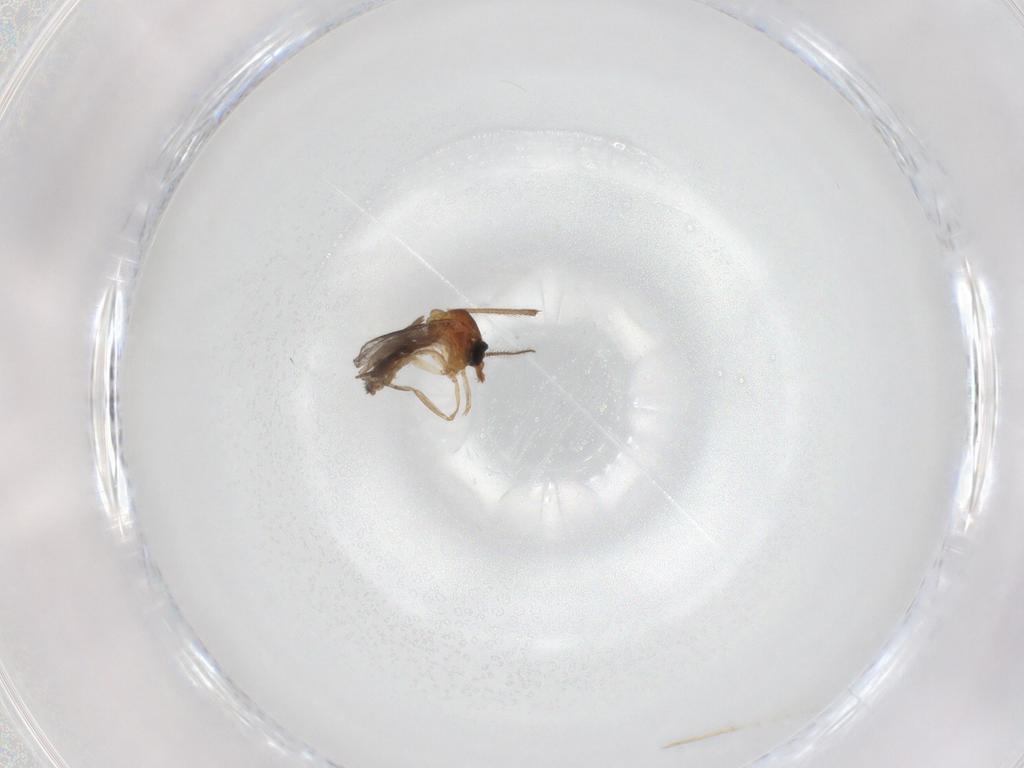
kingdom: Animalia
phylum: Arthropoda
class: Insecta
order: Diptera
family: Ceratopogonidae
